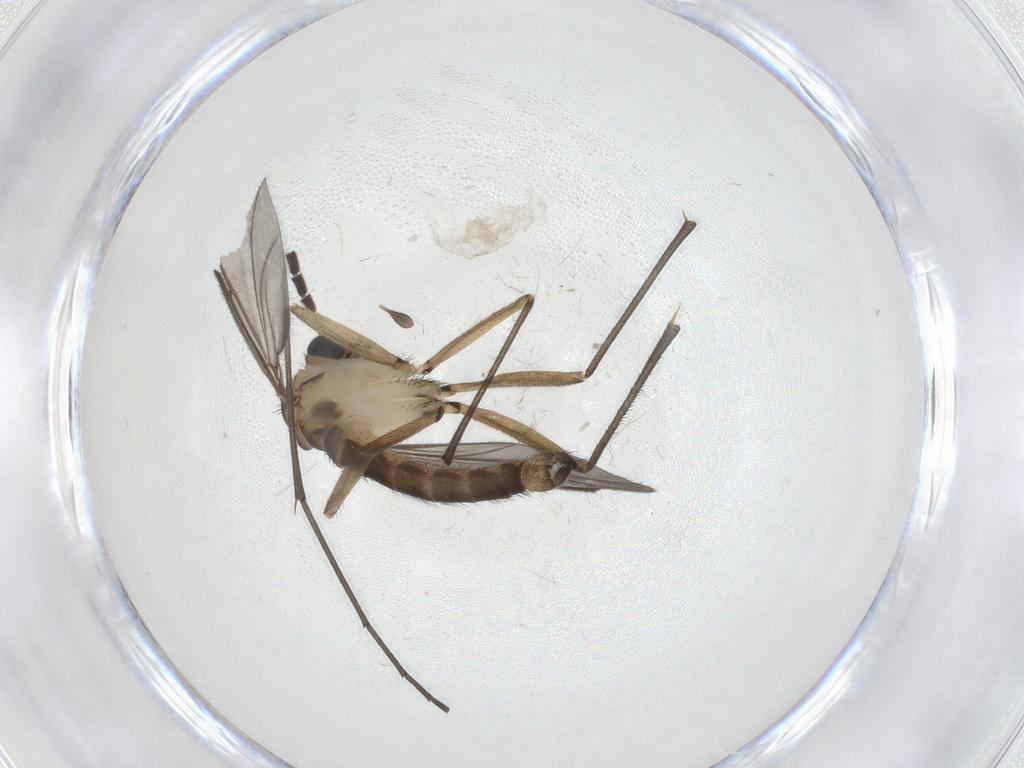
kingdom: Animalia
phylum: Arthropoda
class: Insecta
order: Diptera
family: Sciaridae
